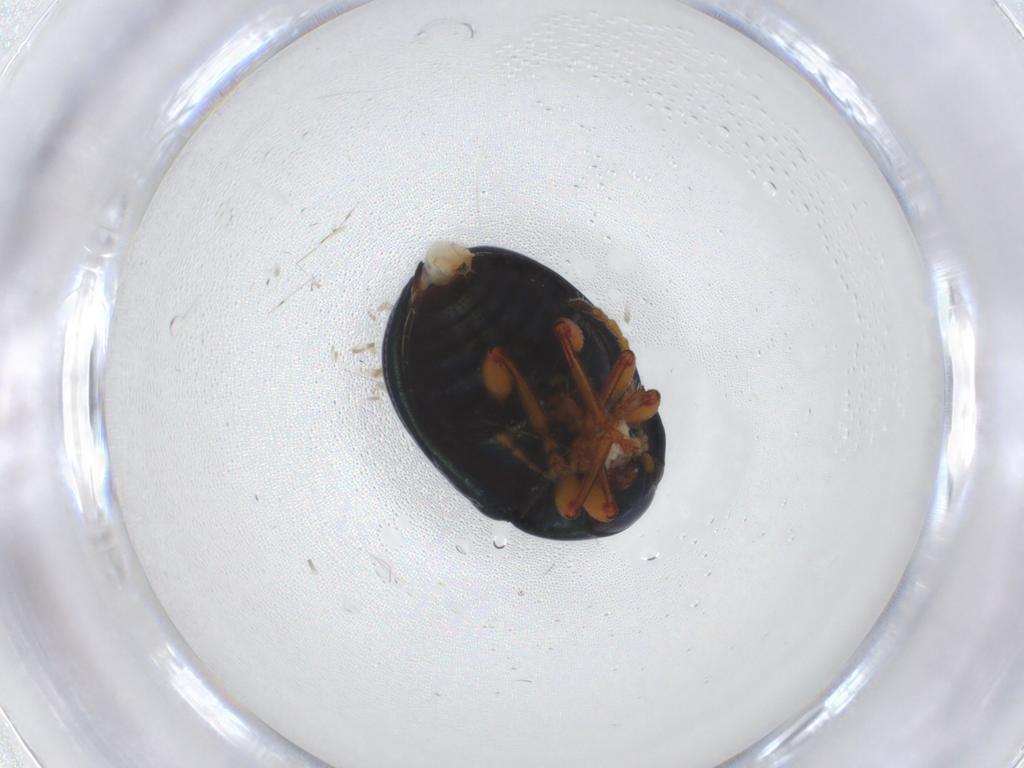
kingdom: Animalia
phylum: Arthropoda
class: Insecta
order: Coleoptera
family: Chrysomelidae
